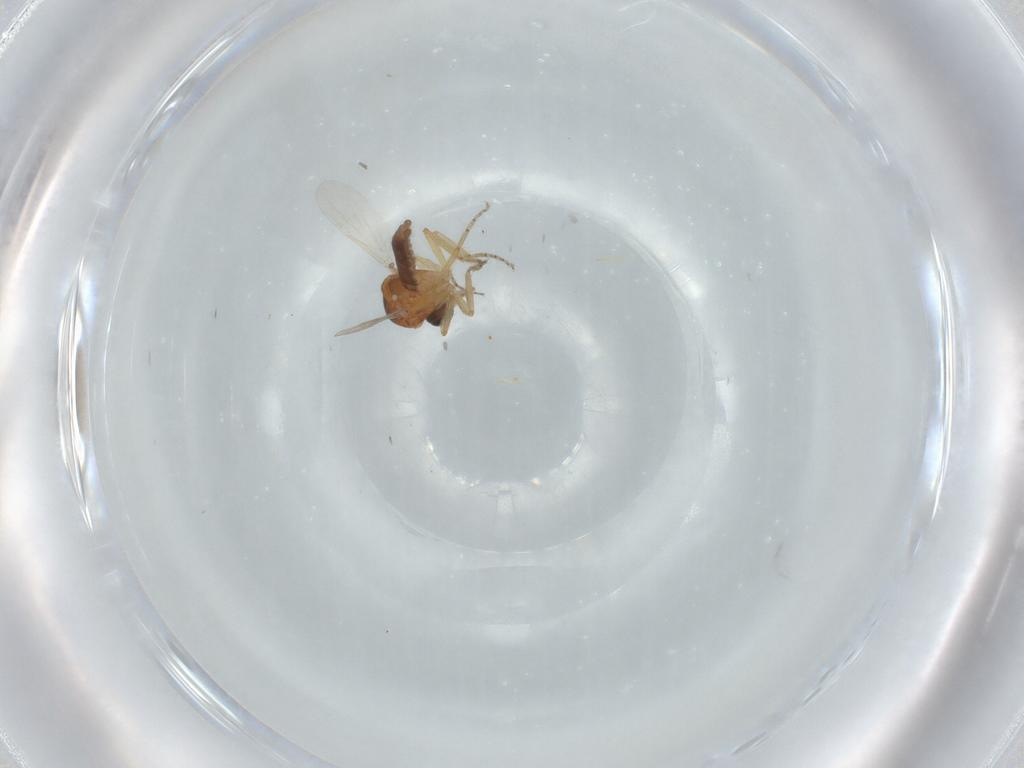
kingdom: Animalia
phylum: Arthropoda
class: Insecta
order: Diptera
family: Ceratopogonidae
